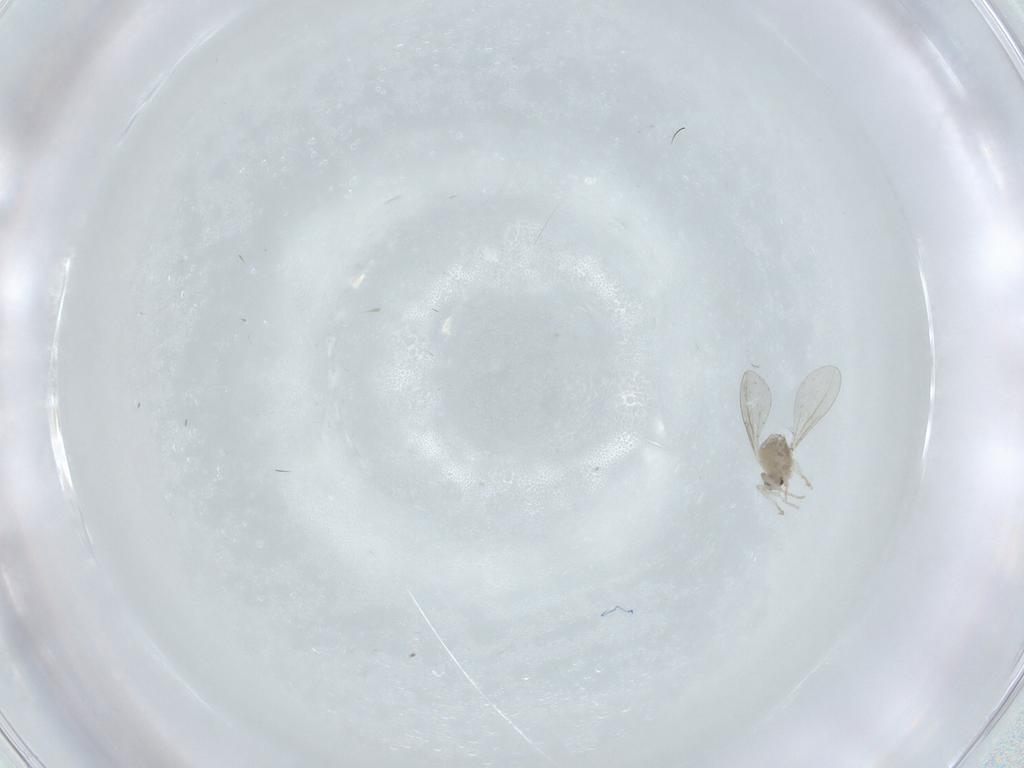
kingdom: Animalia
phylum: Arthropoda
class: Insecta
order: Diptera
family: Cecidomyiidae
